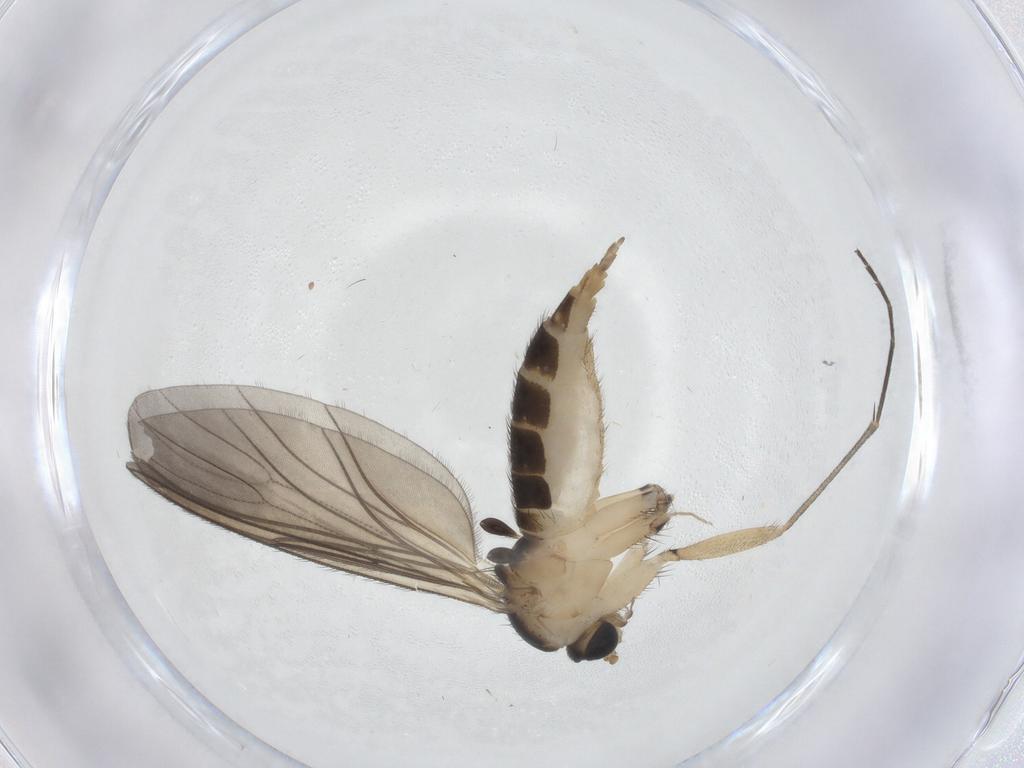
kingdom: Animalia
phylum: Arthropoda
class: Insecta
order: Diptera
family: Sciaridae
